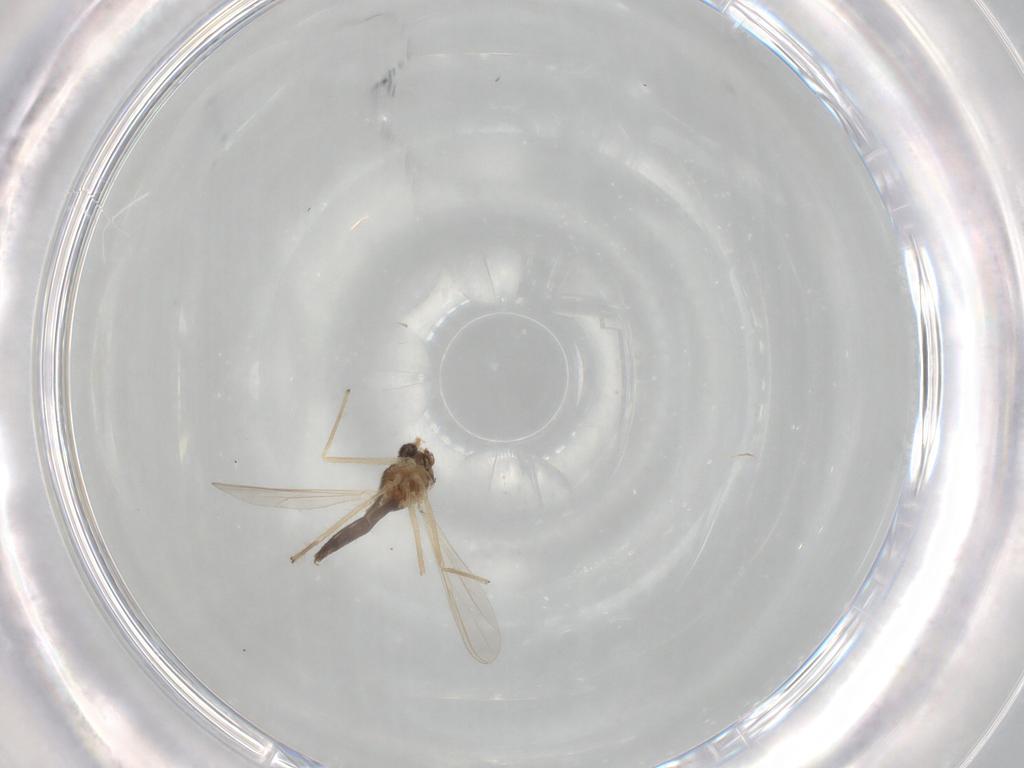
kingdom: Animalia
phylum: Arthropoda
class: Insecta
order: Diptera
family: Chironomidae
